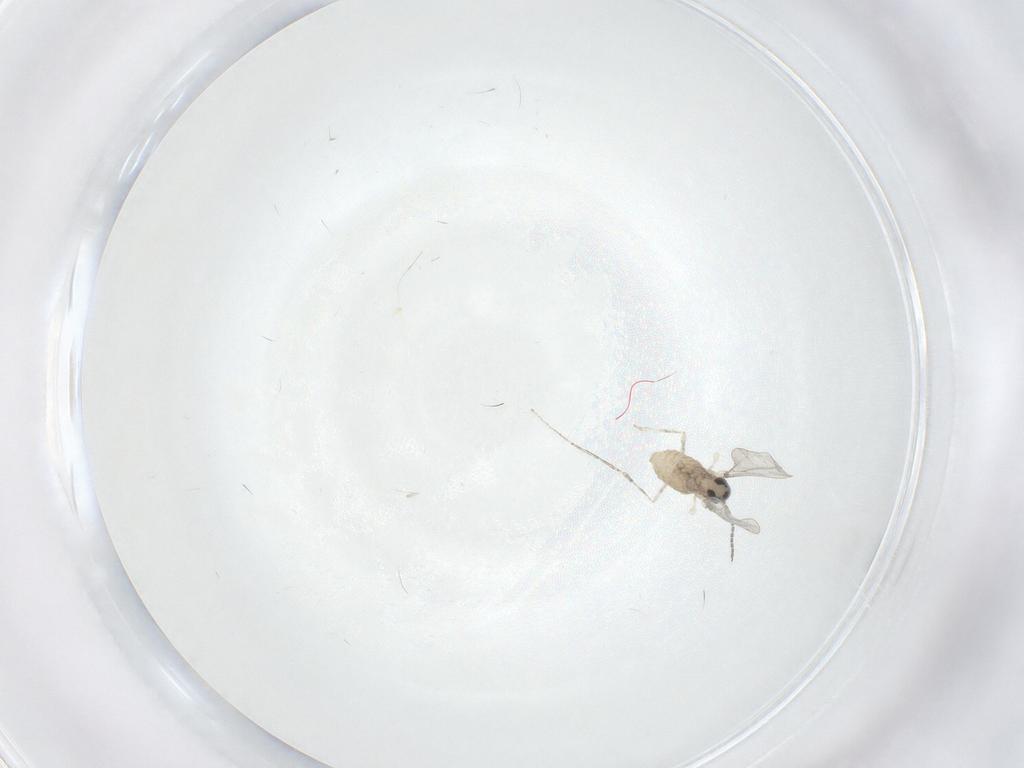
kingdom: Animalia
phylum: Arthropoda
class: Insecta
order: Diptera
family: Cecidomyiidae
